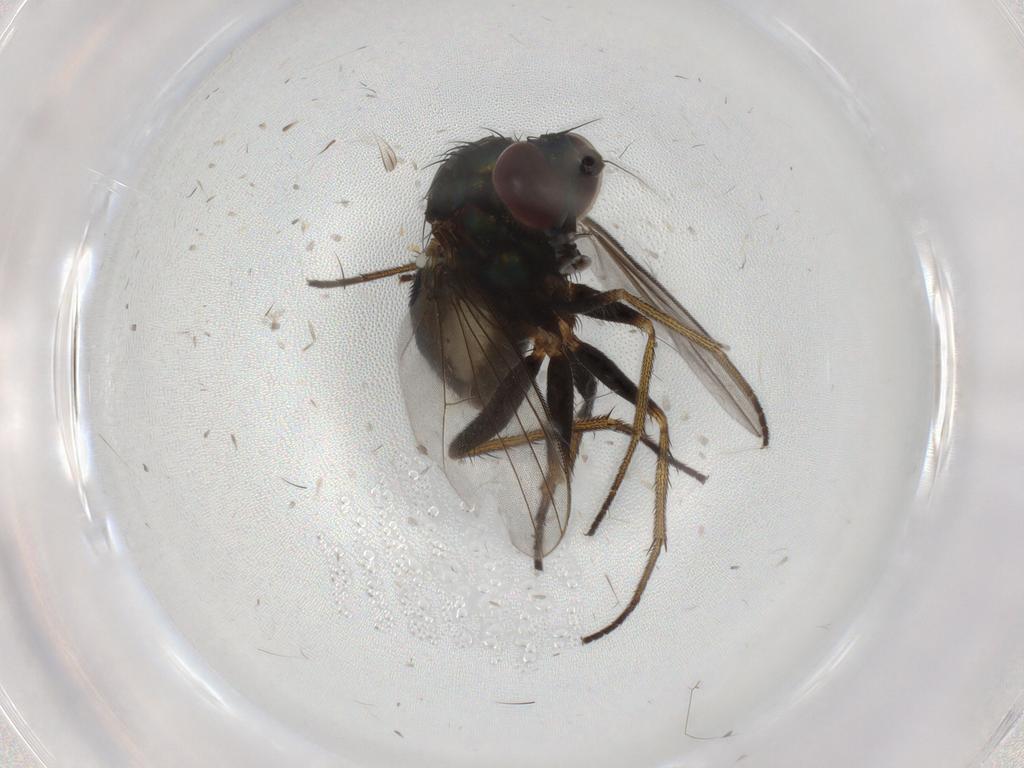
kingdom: Animalia
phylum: Arthropoda
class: Insecta
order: Diptera
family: Dolichopodidae
